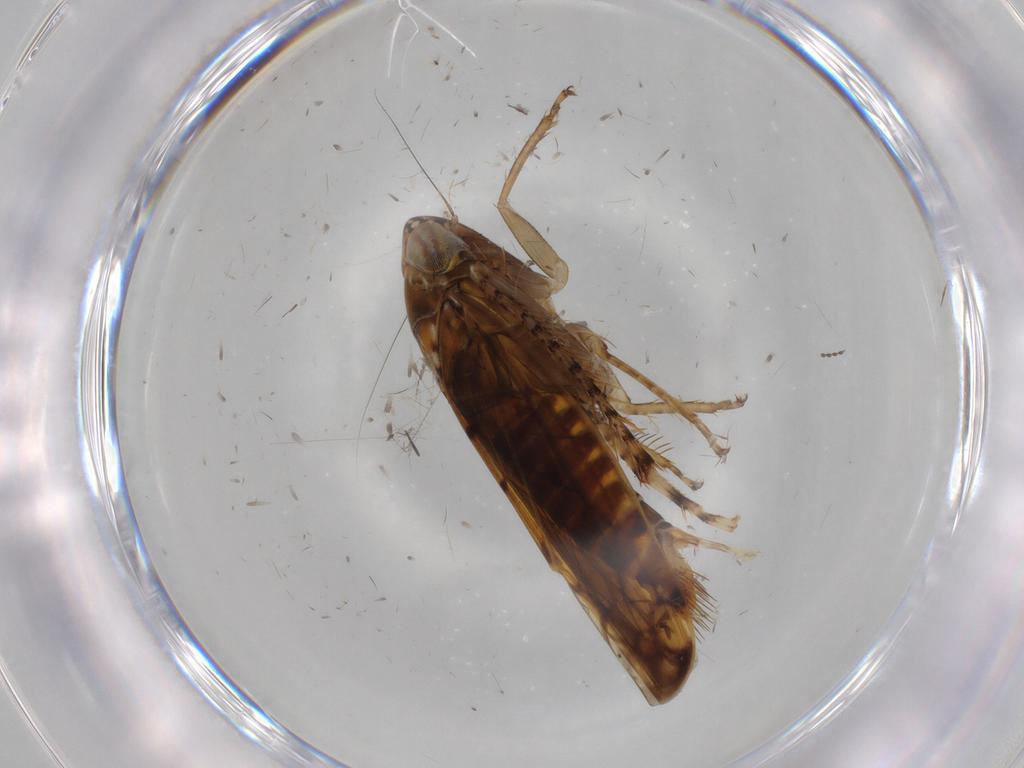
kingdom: Animalia
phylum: Arthropoda
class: Insecta
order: Hemiptera
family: Cicadellidae
